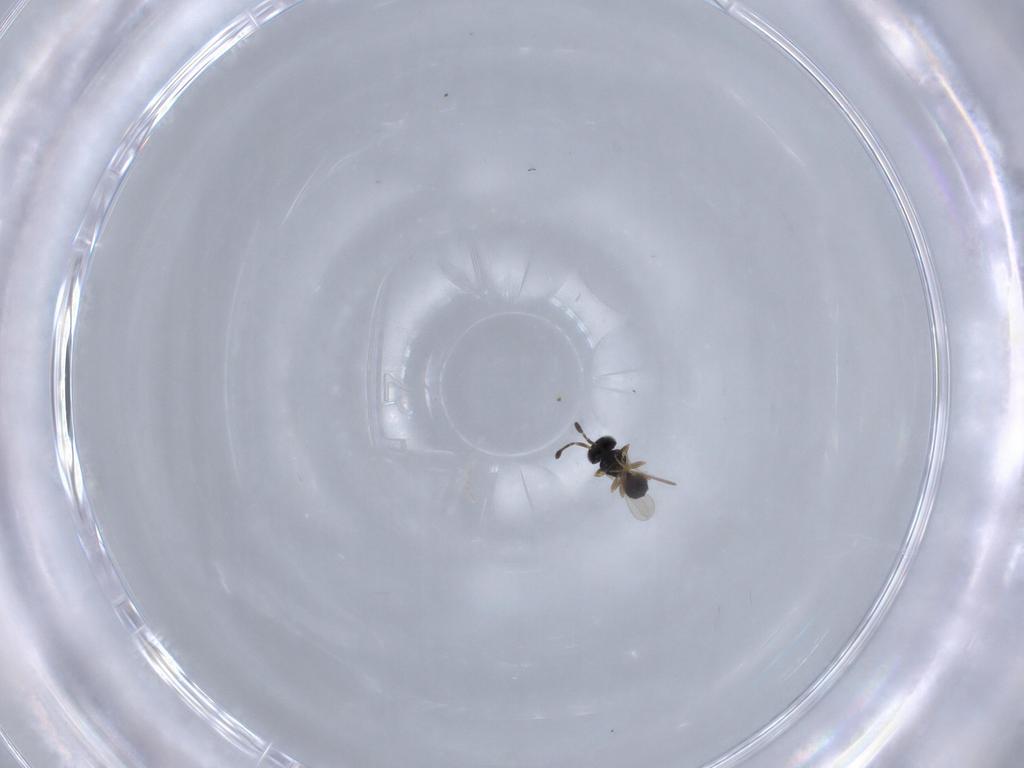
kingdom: Animalia
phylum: Arthropoda
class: Insecta
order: Hymenoptera
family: Scelionidae
